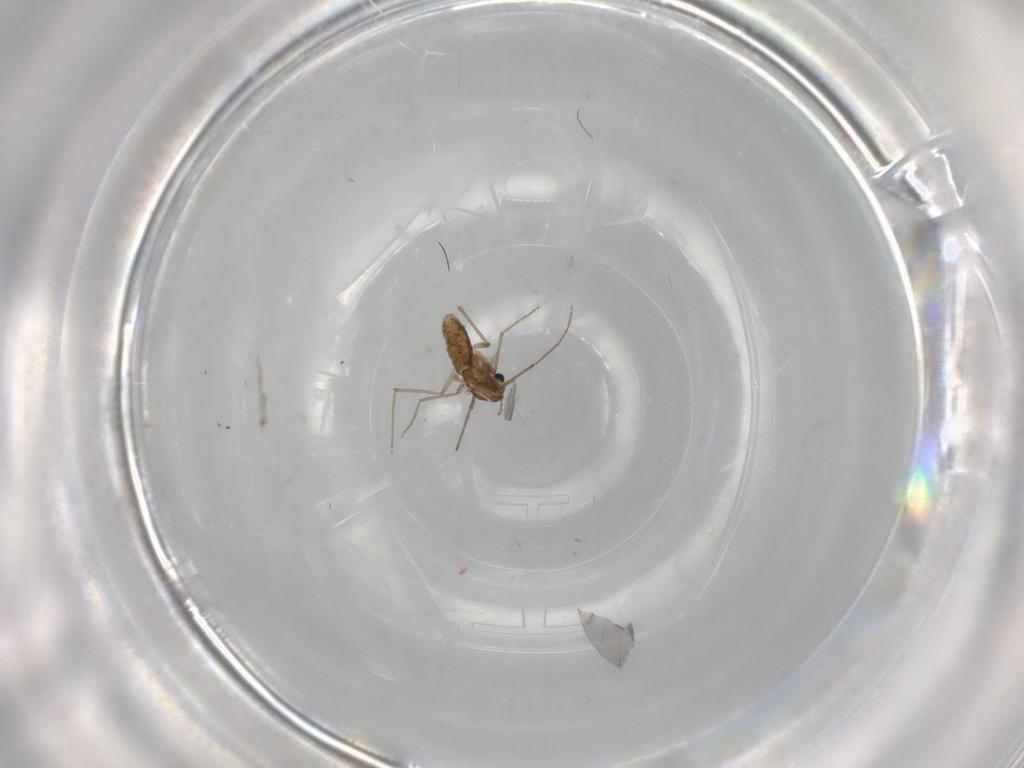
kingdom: Animalia
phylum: Arthropoda
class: Insecta
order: Diptera
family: Chironomidae
